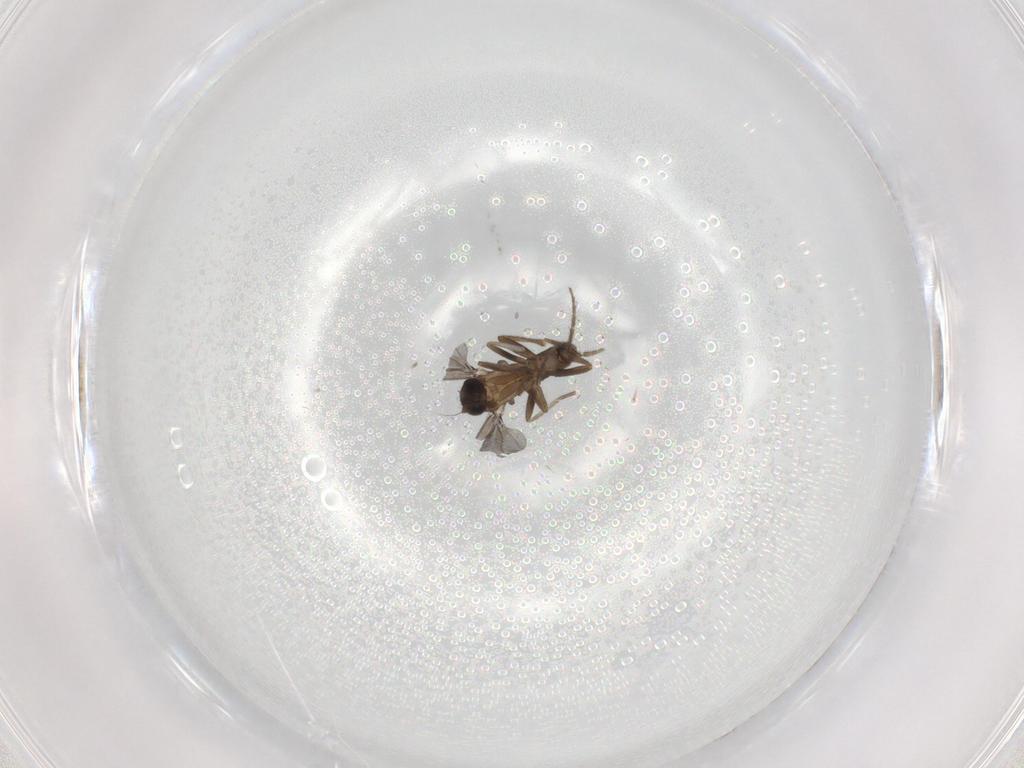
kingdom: Animalia
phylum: Arthropoda
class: Insecta
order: Diptera
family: Phoridae
